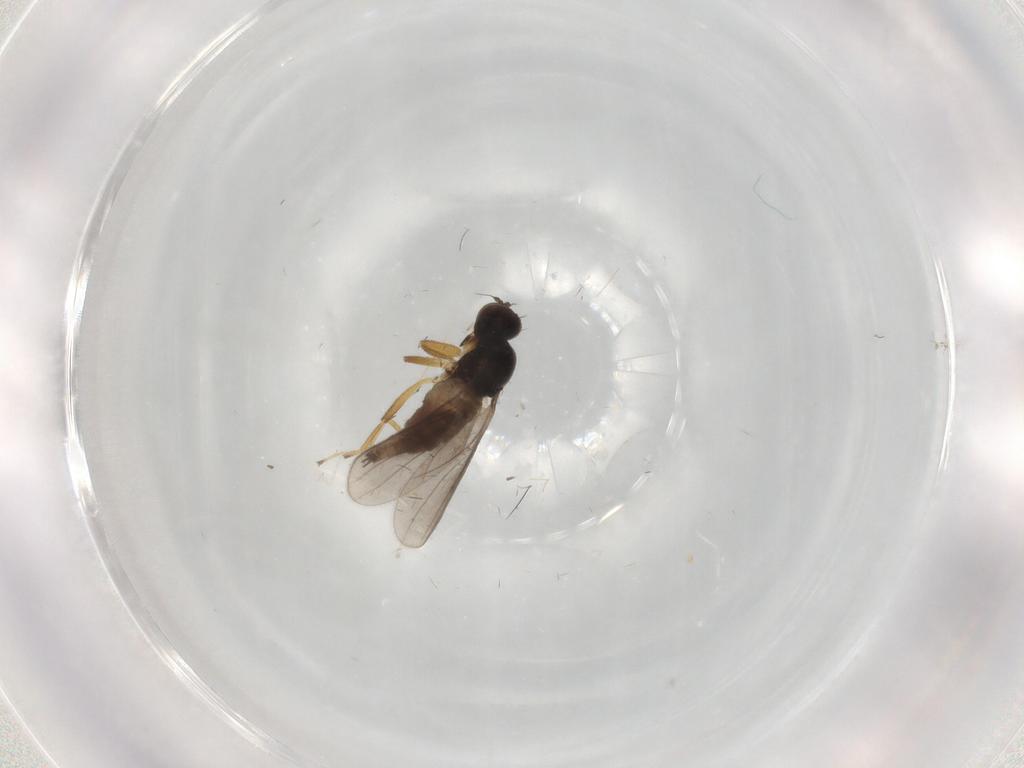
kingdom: Animalia
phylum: Arthropoda
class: Insecta
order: Diptera
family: Hybotidae
